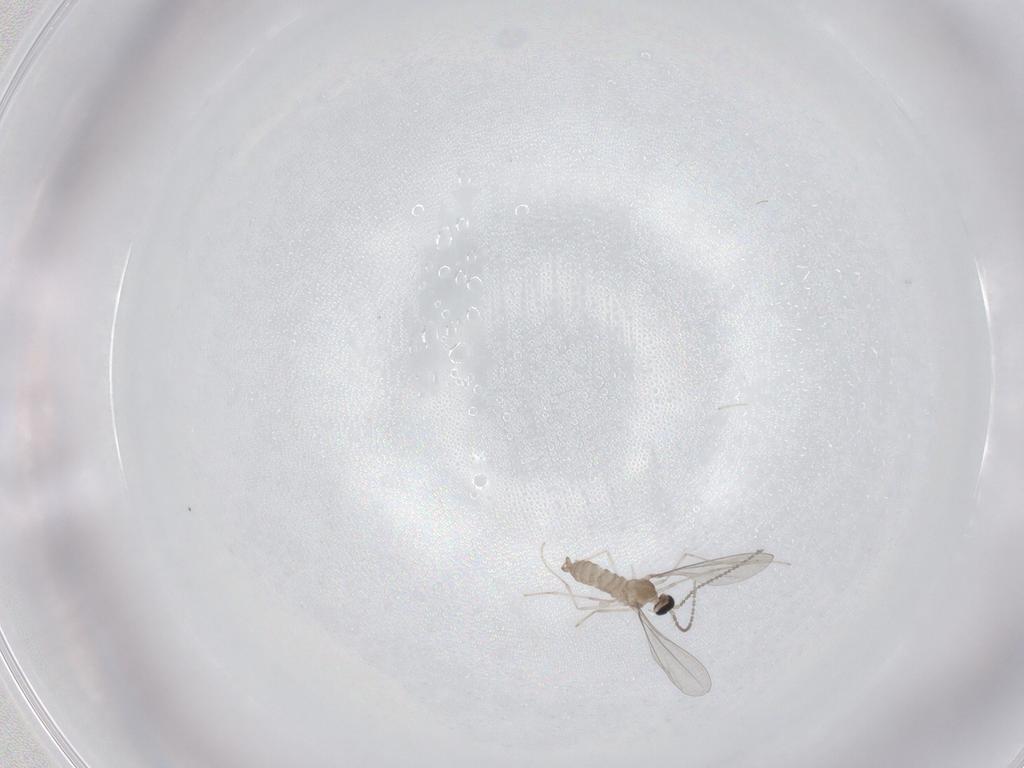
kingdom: Animalia
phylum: Arthropoda
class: Insecta
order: Diptera
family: Cecidomyiidae
